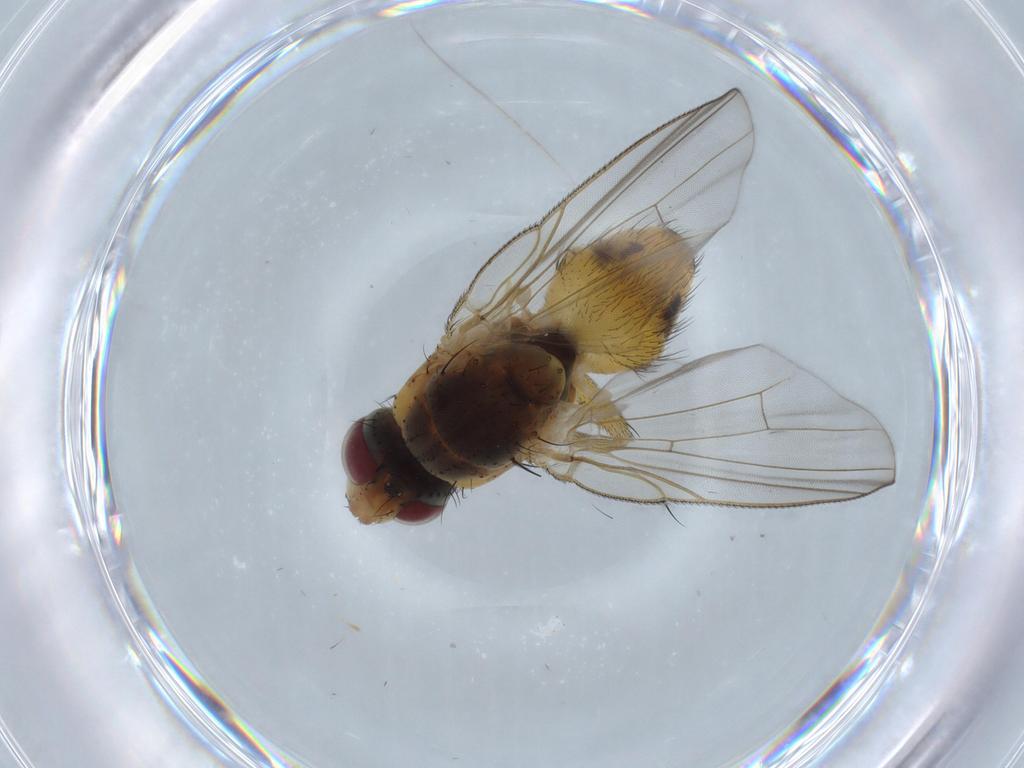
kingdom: Animalia
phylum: Arthropoda
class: Insecta
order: Diptera
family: Muscidae
